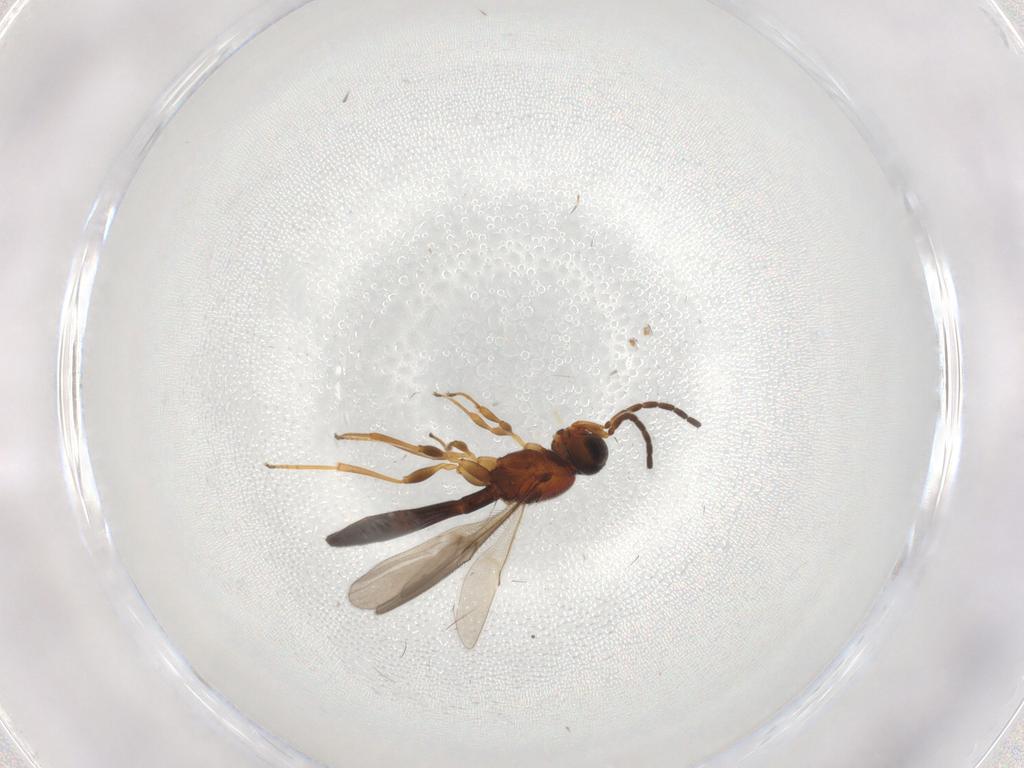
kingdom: Animalia
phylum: Arthropoda
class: Insecta
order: Hymenoptera
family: Scelionidae
